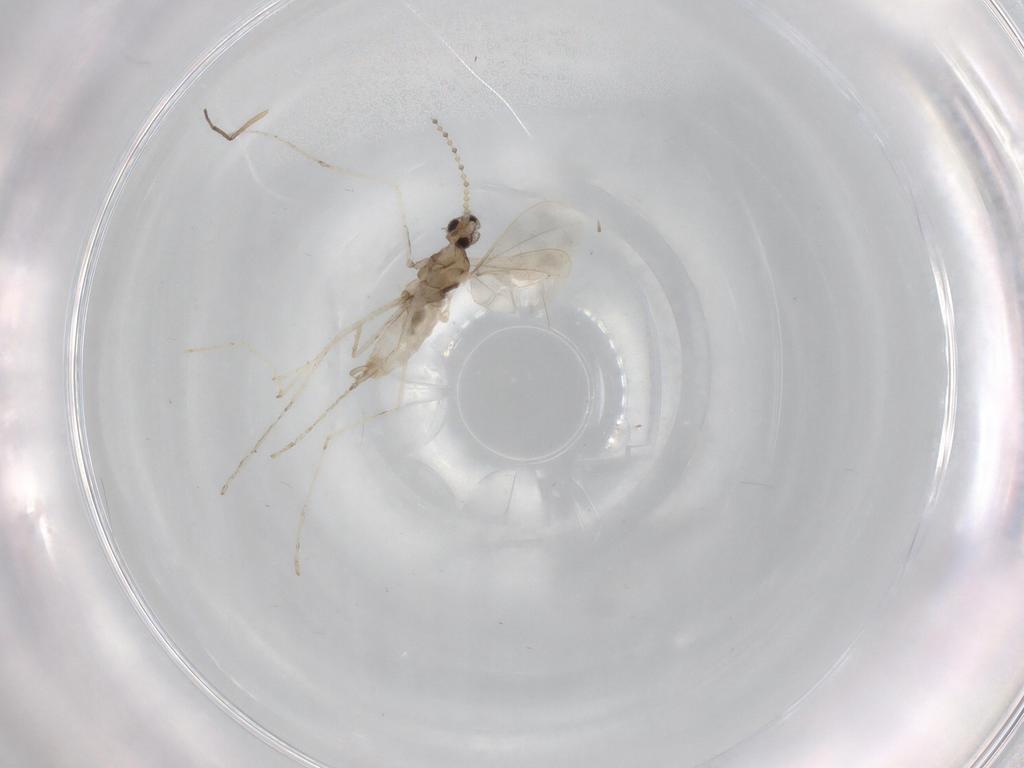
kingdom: Animalia
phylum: Arthropoda
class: Insecta
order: Diptera
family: Cecidomyiidae
